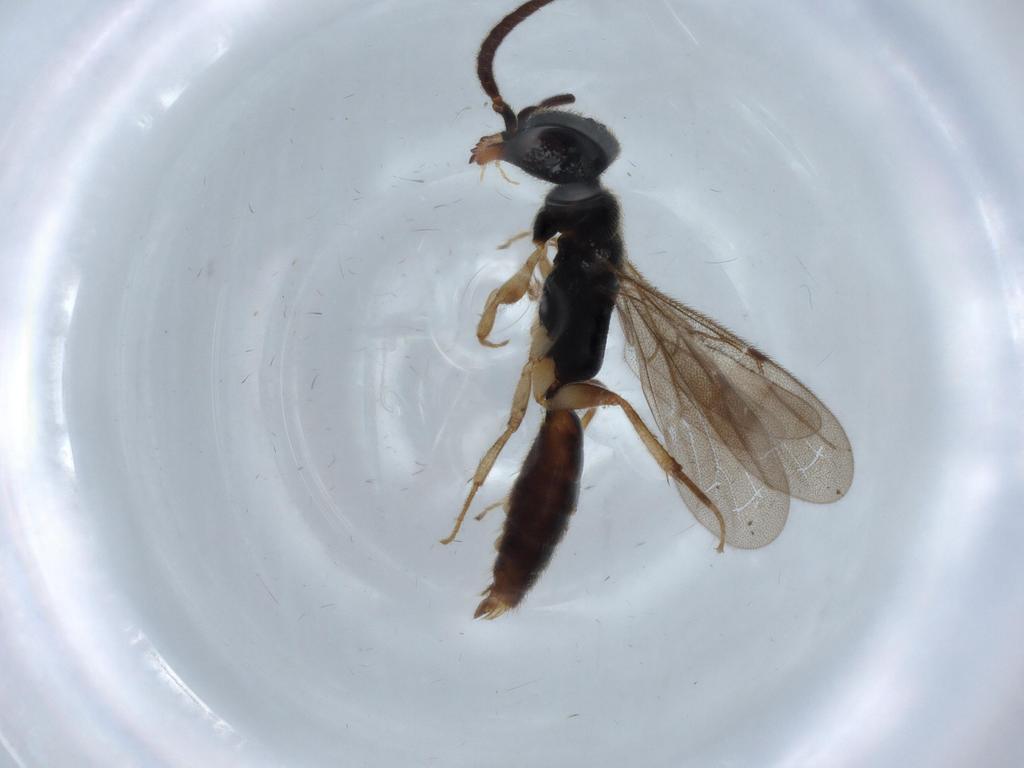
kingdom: Animalia
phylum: Arthropoda
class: Insecta
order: Hymenoptera
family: Bethylidae
